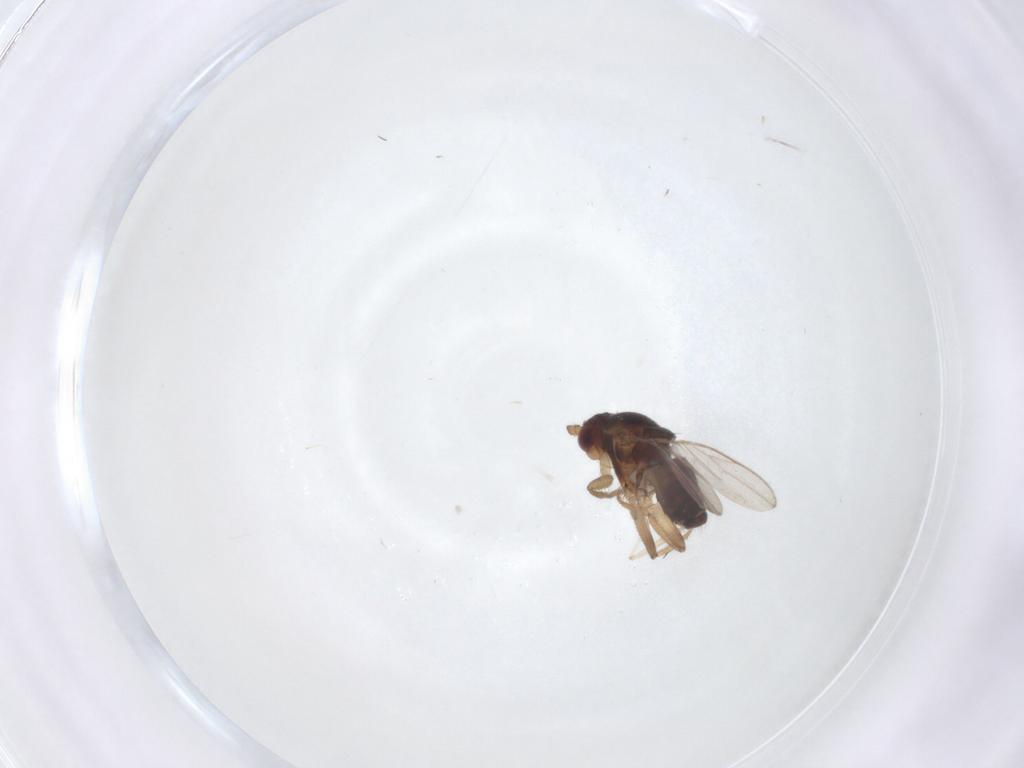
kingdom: Animalia
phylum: Arthropoda
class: Insecta
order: Diptera
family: Sphaeroceridae
